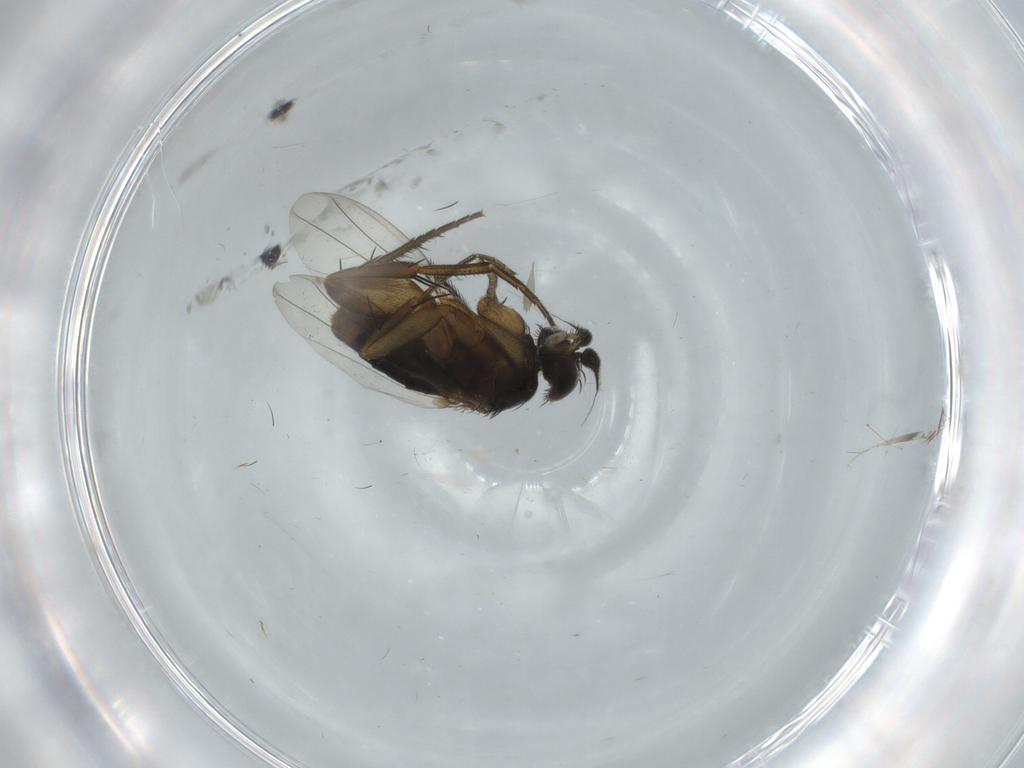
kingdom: Animalia
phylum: Arthropoda
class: Insecta
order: Diptera
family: Phoridae
